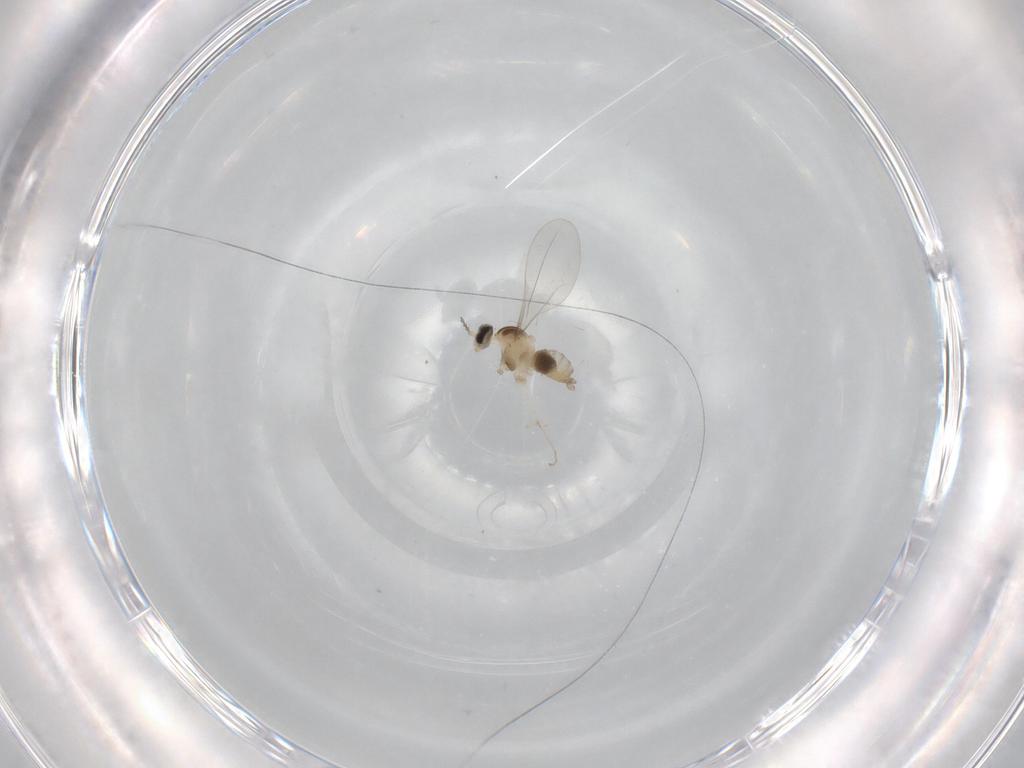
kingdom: Animalia
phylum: Arthropoda
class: Insecta
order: Diptera
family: Cecidomyiidae
